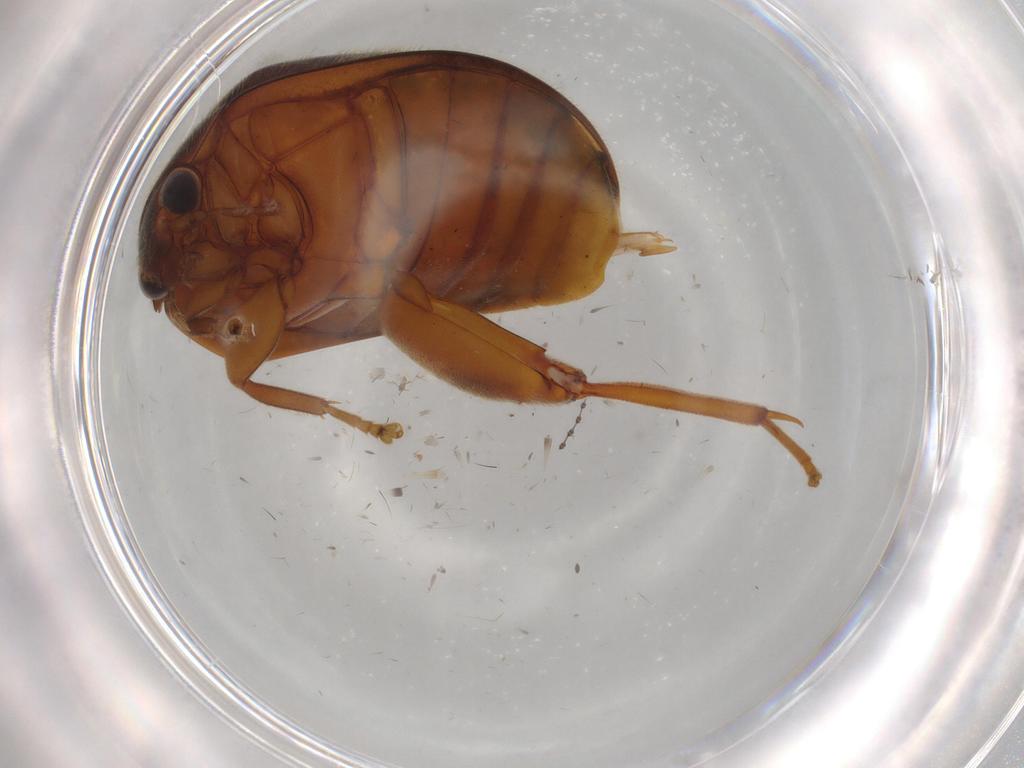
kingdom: Animalia
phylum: Arthropoda
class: Insecta
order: Coleoptera
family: Scirtidae
